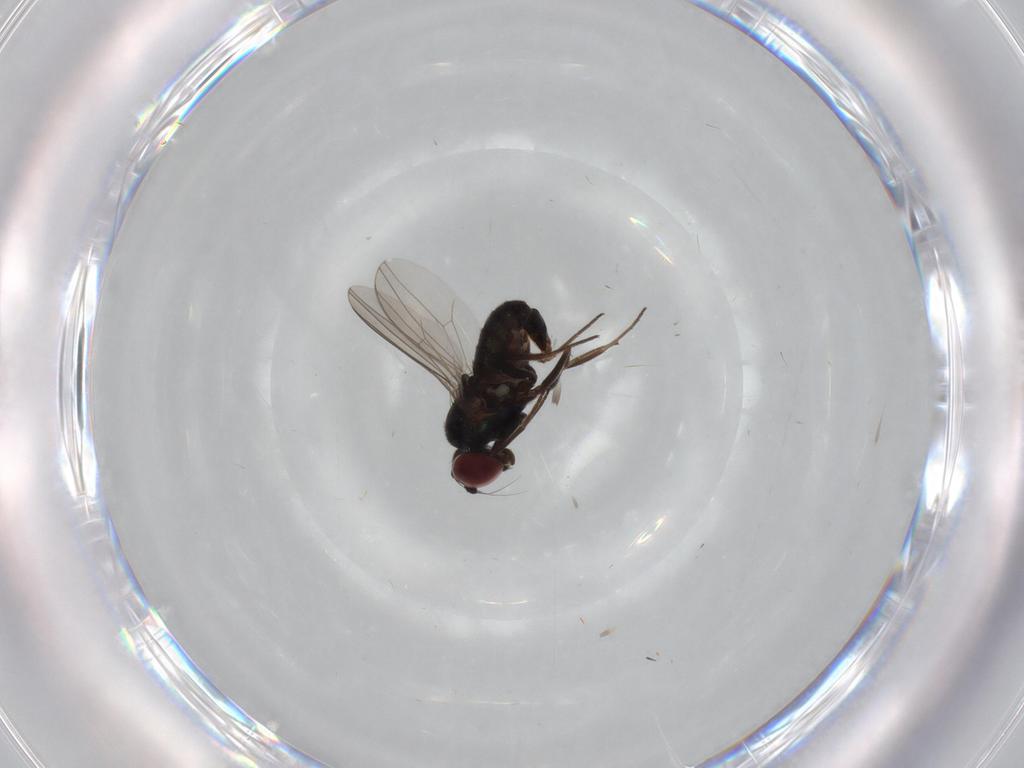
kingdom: Animalia
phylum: Arthropoda
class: Insecta
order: Diptera
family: Dolichopodidae
